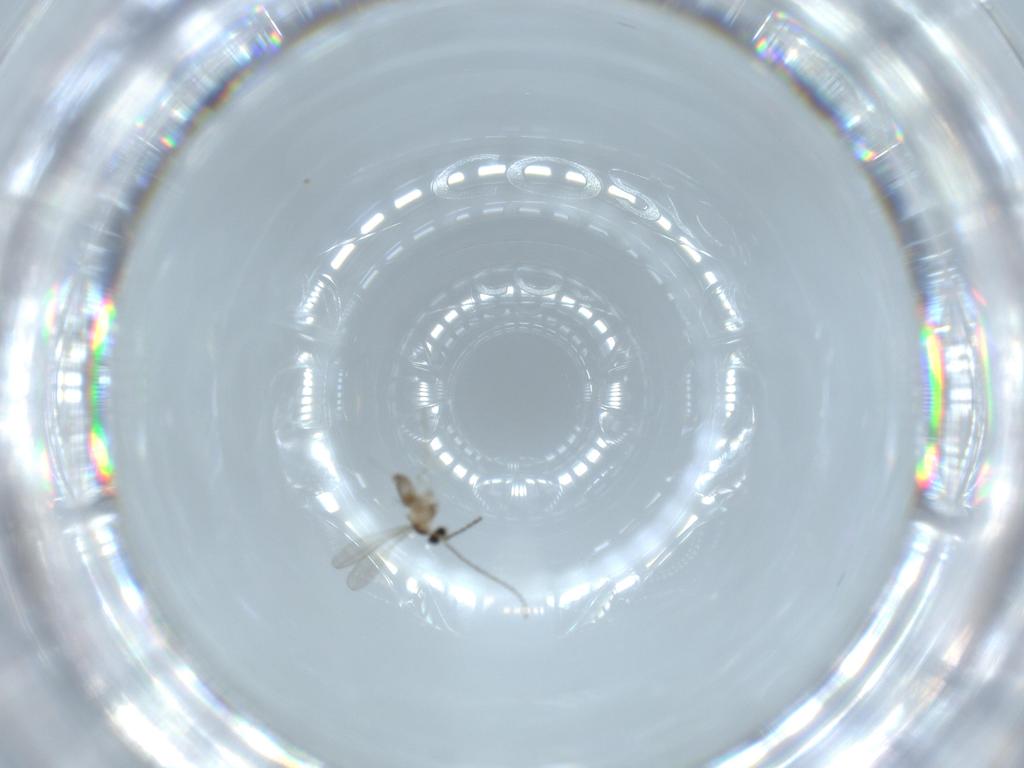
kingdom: Animalia
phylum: Arthropoda
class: Insecta
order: Diptera
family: Cecidomyiidae
